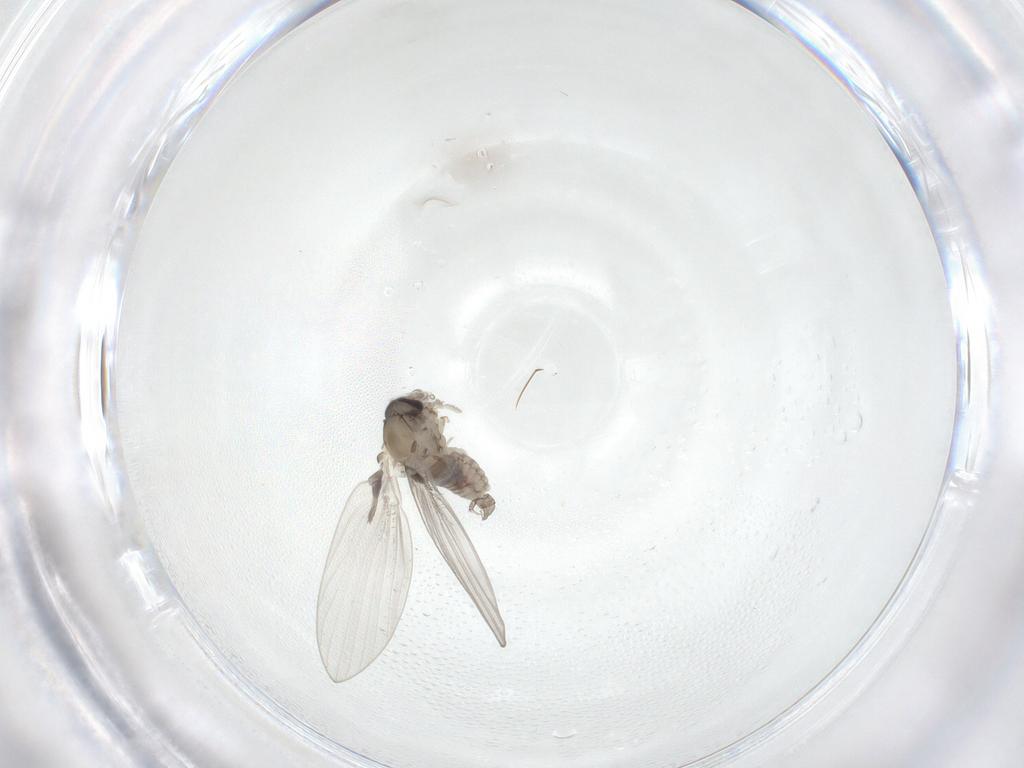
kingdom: Animalia
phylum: Arthropoda
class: Insecta
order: Diptera
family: Psychodidae
